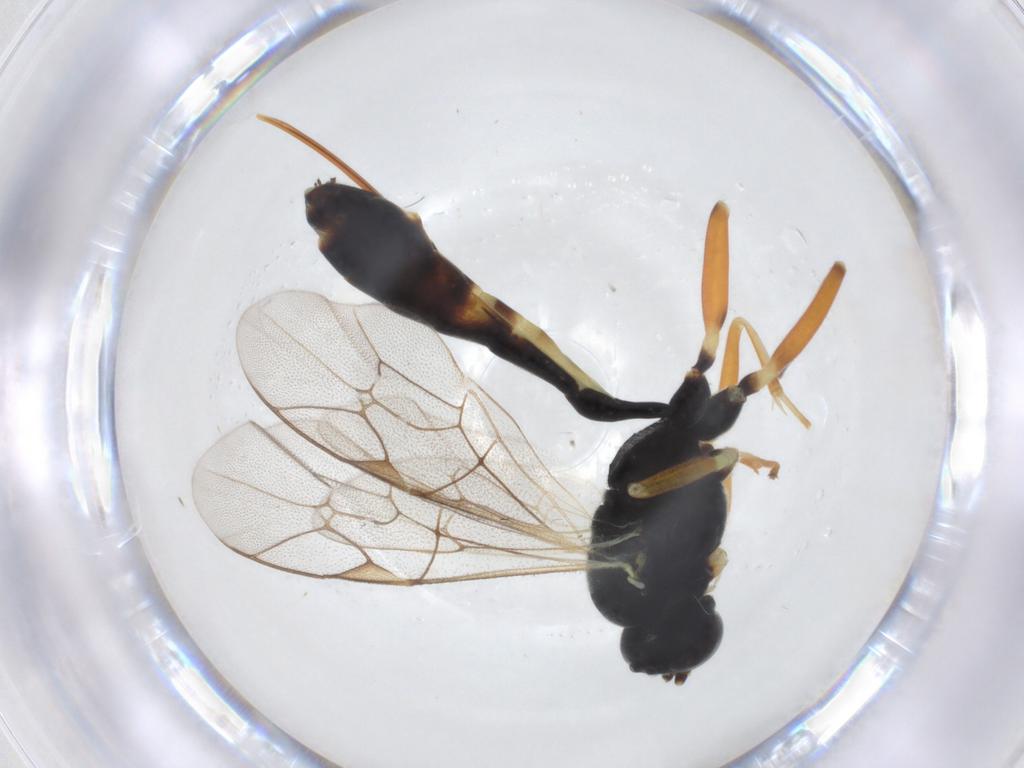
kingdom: Animalia
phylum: Arthropoda
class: Insecta
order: Hymenoptera
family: Ichneumonidae
